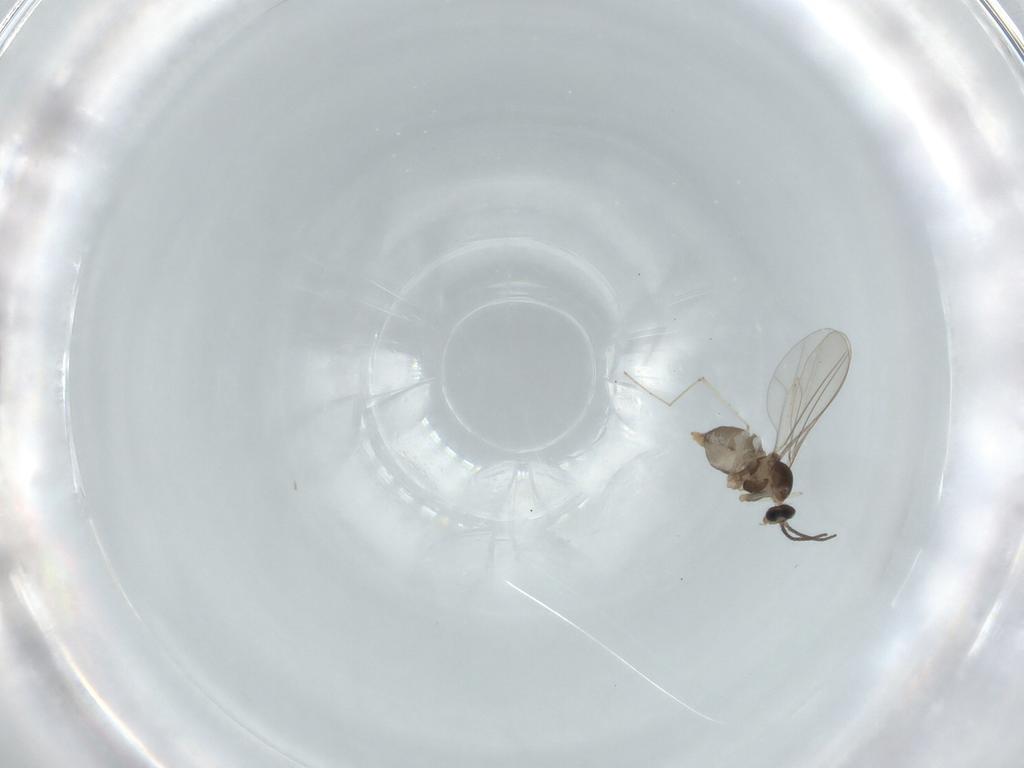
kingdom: Animalia
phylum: Arthropoda
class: Insecta
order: Diptera
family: Cecidomyiidae
